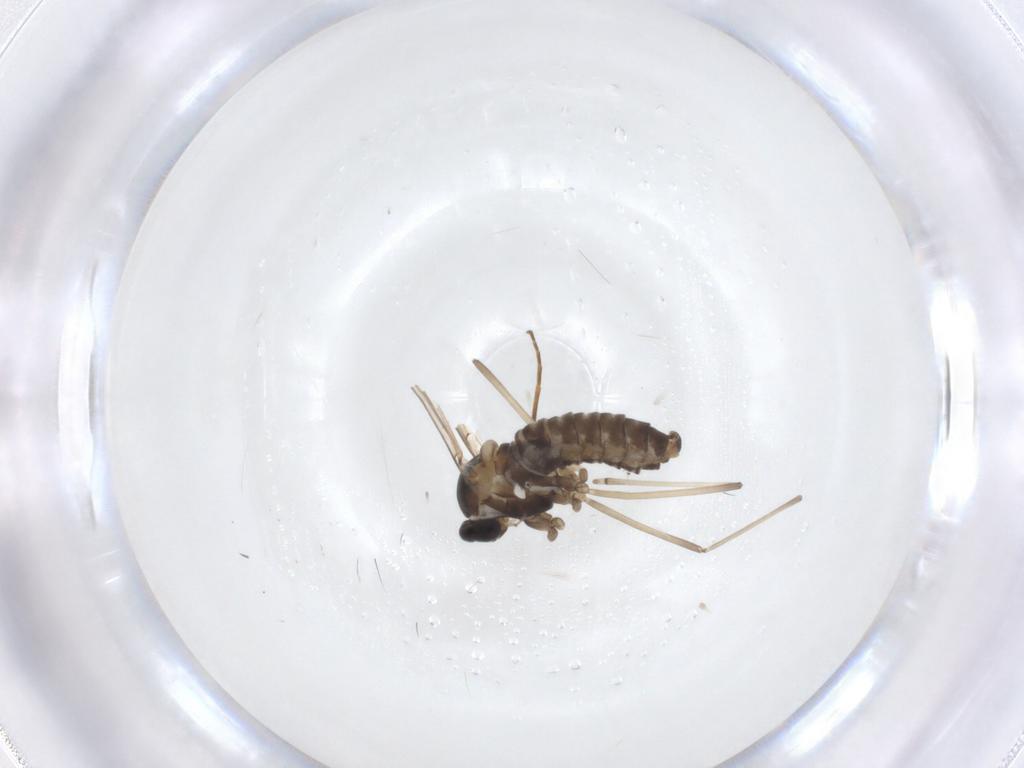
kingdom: Animalia
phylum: Arthropoda
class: Insecta
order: Diptera
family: Cecidomyiidae
